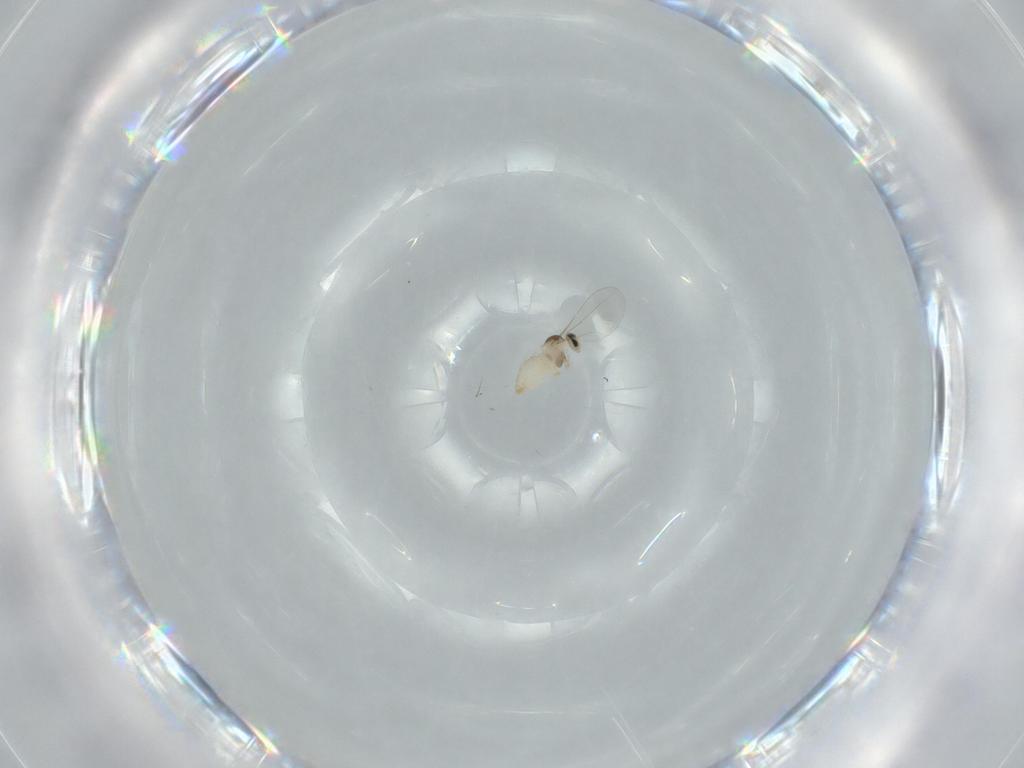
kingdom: Animalia
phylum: Arthropoda
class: Insecta
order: Diptera
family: Cecidomyiidae
